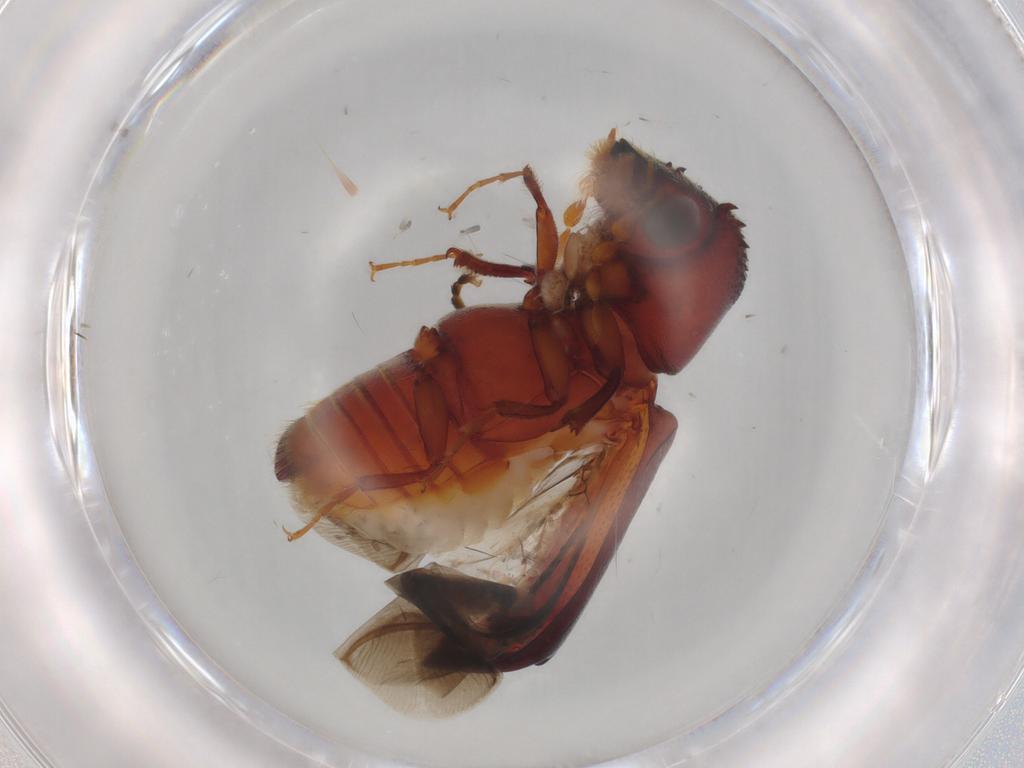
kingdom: Animalia
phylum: Arthropoda
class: Insecta
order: Coleoptera
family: Bostrichidae
